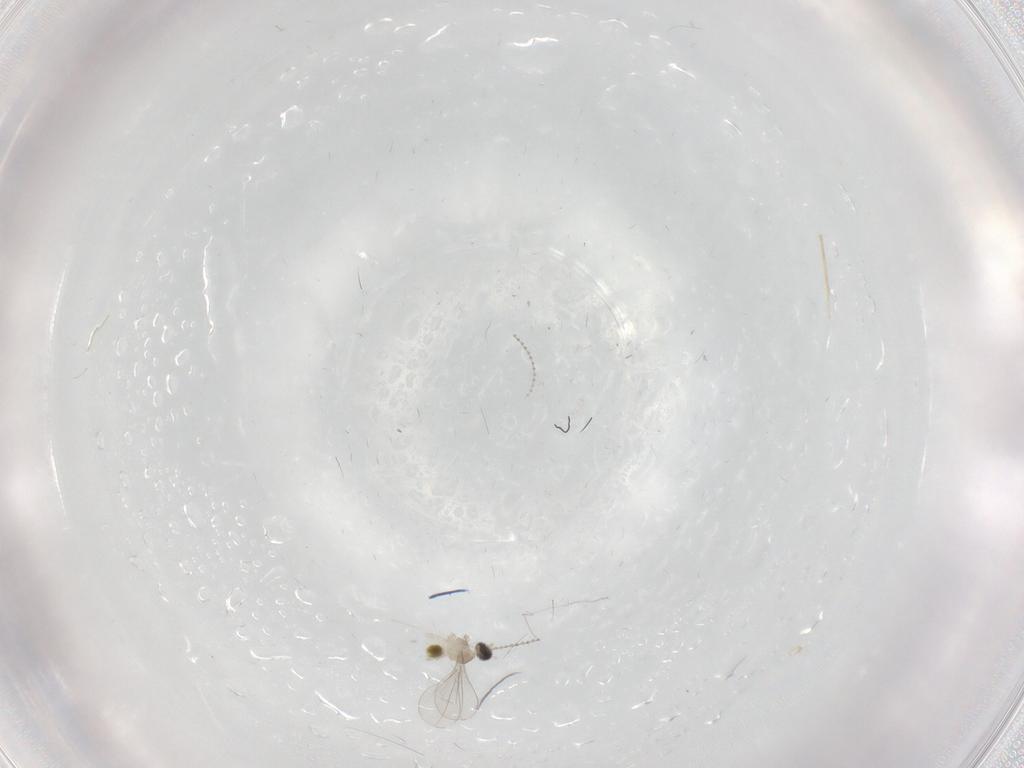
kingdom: Animalia
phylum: Arthropoda
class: Insecta
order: Diptera
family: Cecidomyiidae
